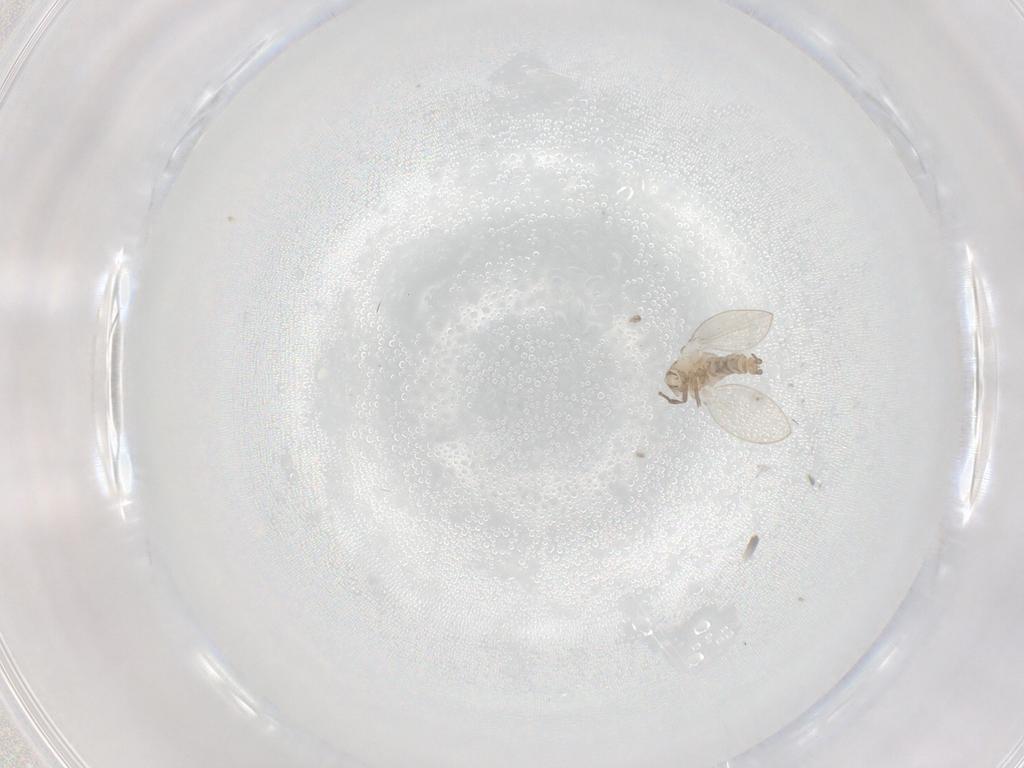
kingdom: Animalia
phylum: Arthropoda
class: Insecta
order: Diptera
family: Psychodidae
